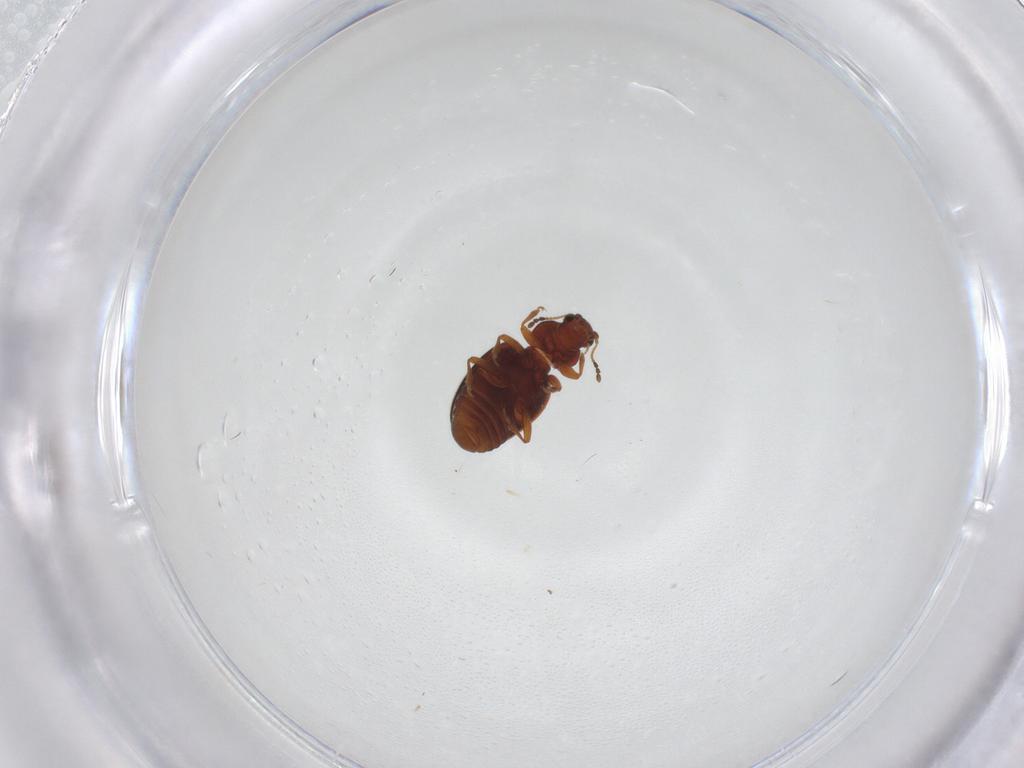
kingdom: Animalia
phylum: Arthropoda
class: Insecta
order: Coleoptera
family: Latridiidae
